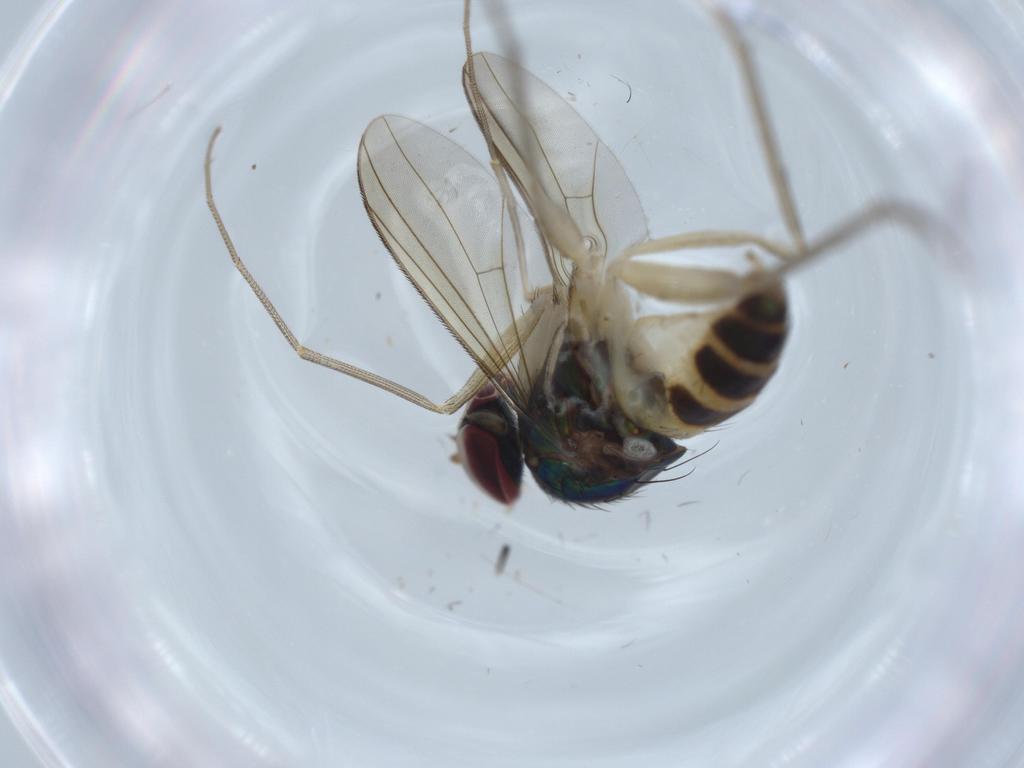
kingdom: Animalia
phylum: Arthropoda
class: Insecta
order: Diptera
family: Dolichopodidae
